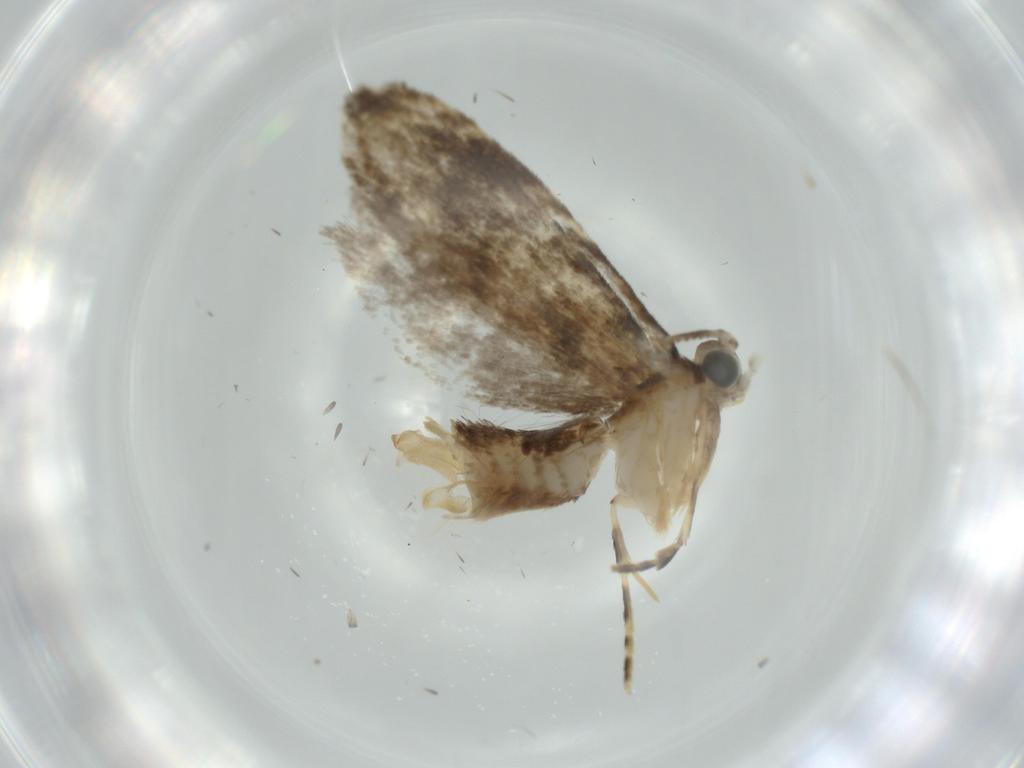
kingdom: Animalia
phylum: Arthropoda
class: Insecta
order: Lepidoptera
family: Tineidae
